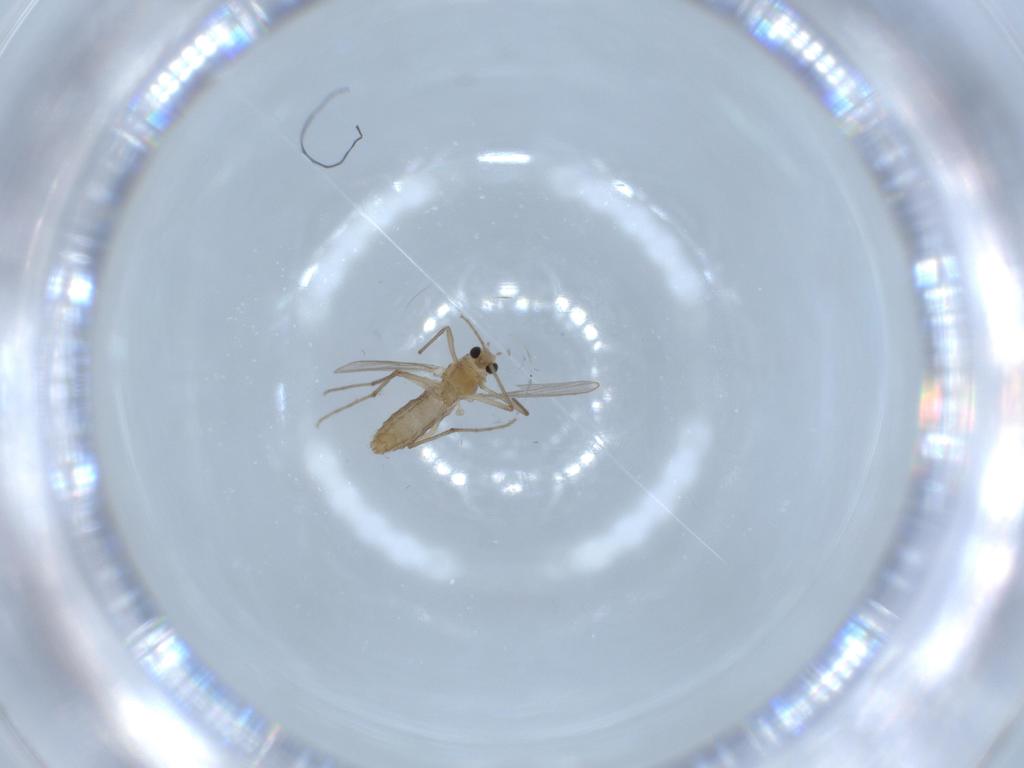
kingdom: Animalia
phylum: Arthropoda
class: Insecta
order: Diptera
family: Chironomidae
